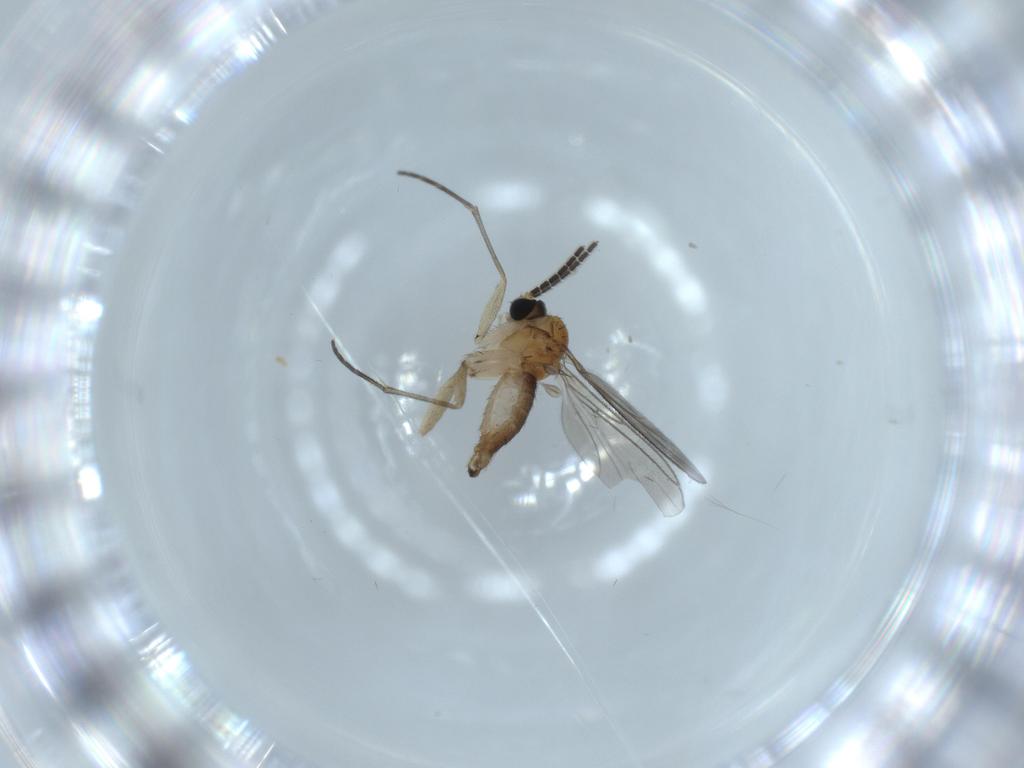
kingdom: Animalia
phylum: Arthropoda
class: Insecta
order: Diptera
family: Sciaridae
